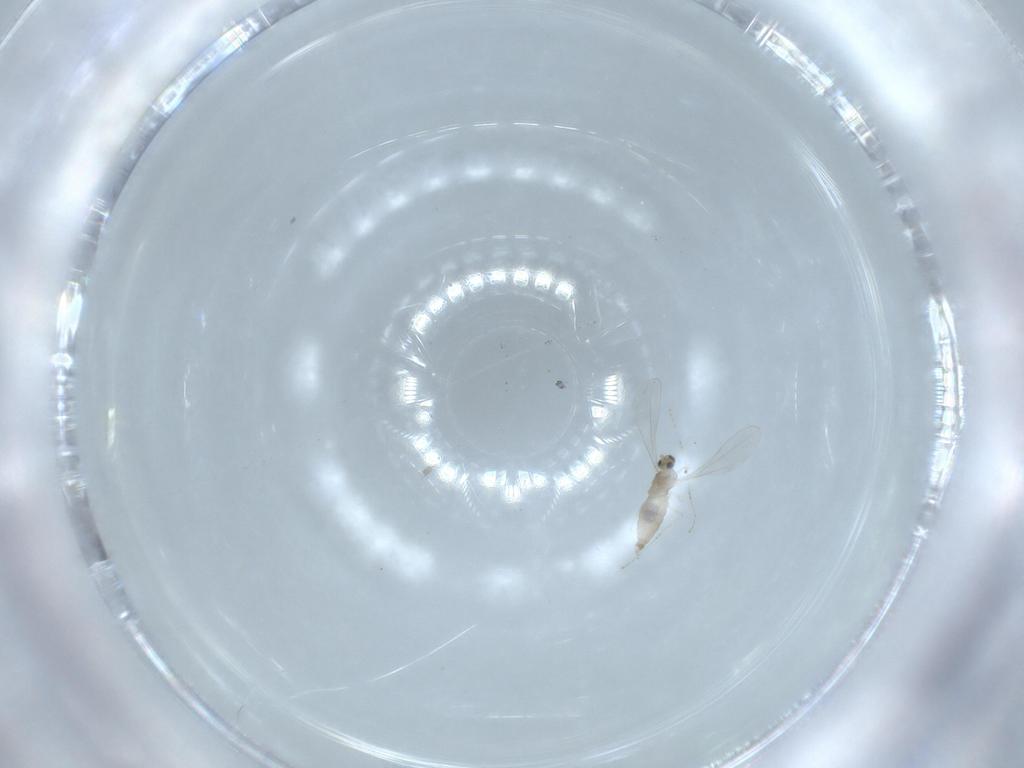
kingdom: Animalia
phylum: Arthropoda
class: Insecta
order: Diptera
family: Cecidomyiidae
